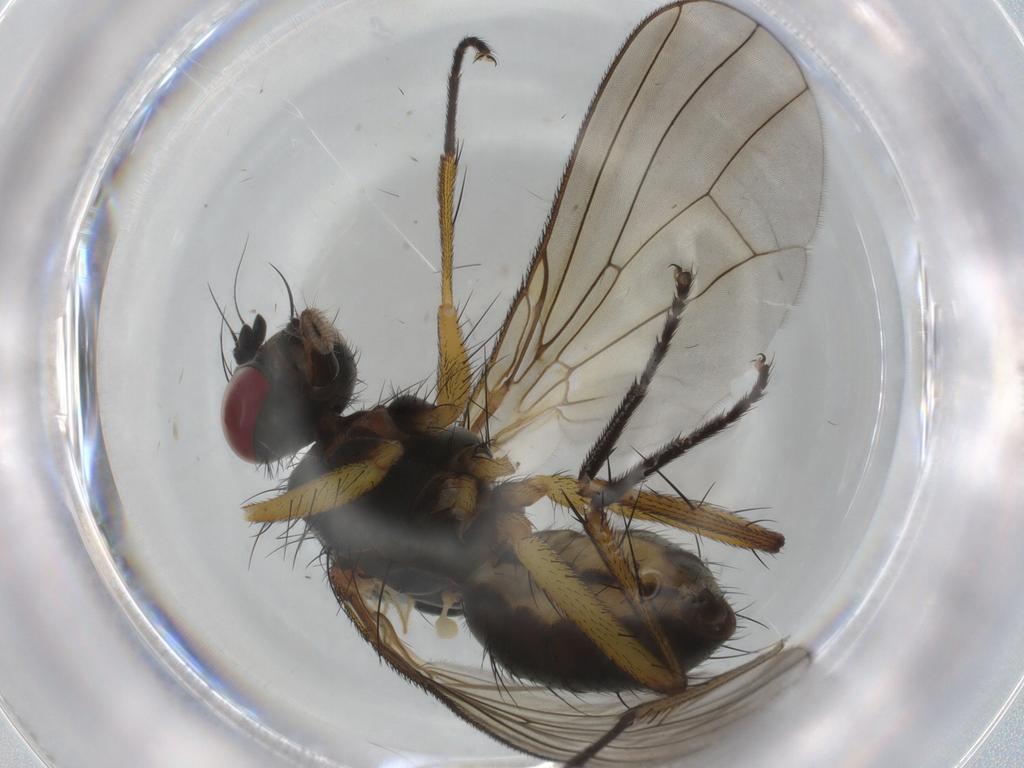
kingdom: Animalia
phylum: Arthropoda
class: Insecta
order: Diptera
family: Muscidae
